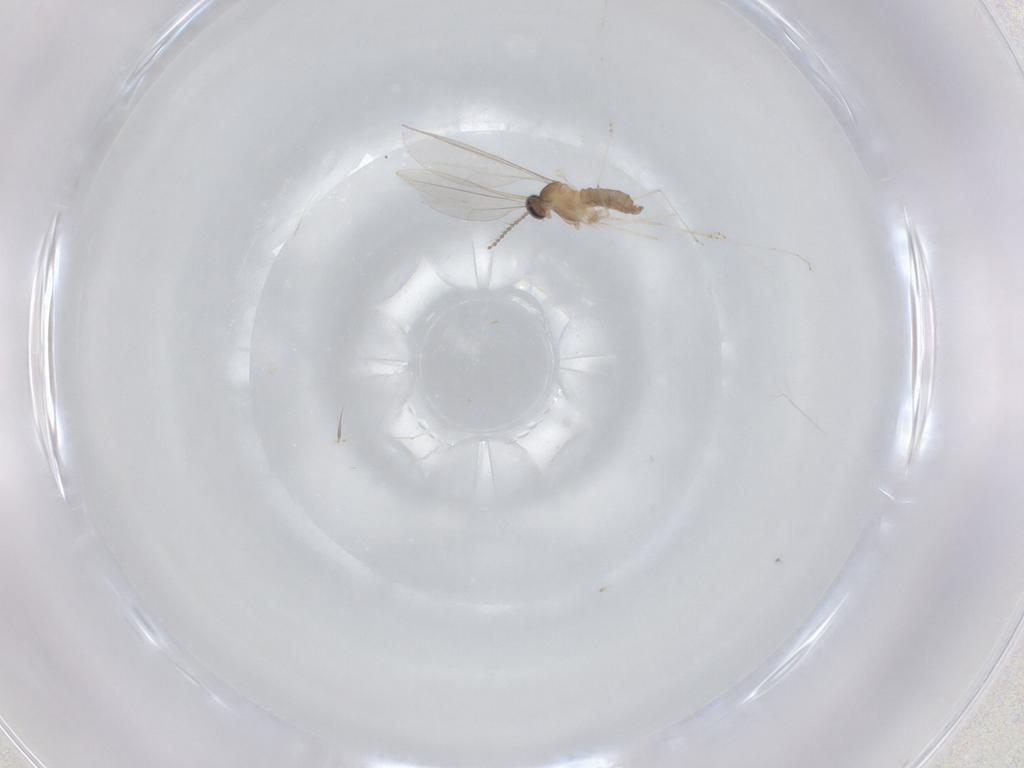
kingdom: Animalia
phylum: Arthropoda
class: Insecta
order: Diptera
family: Cecidomyiidae
